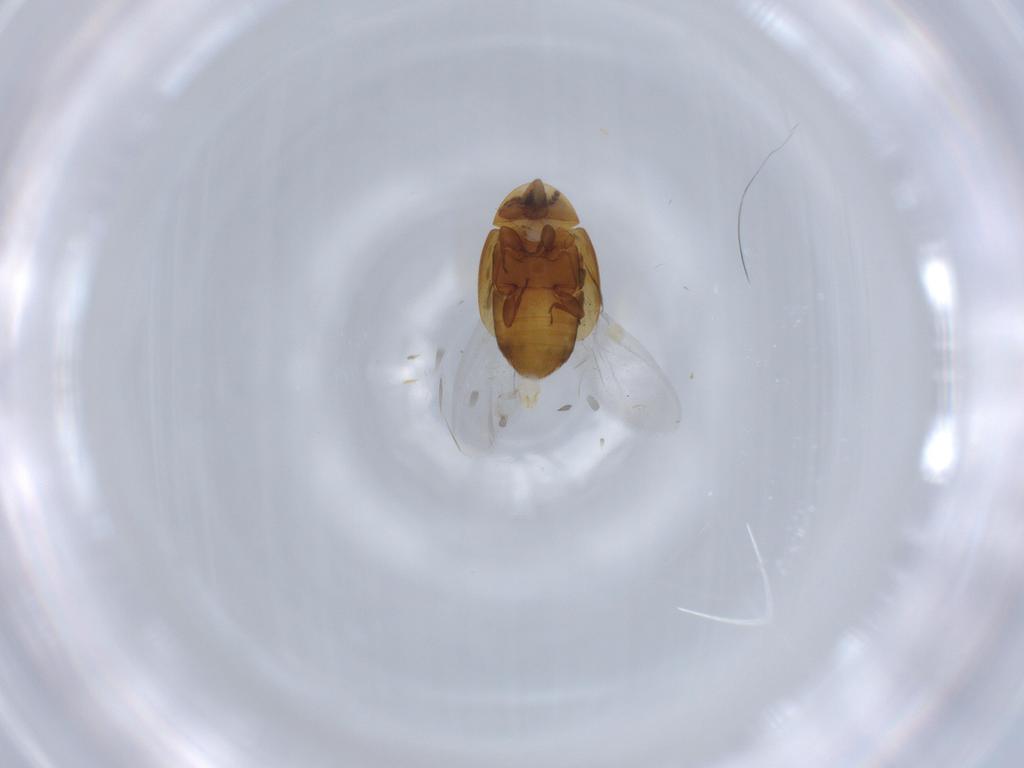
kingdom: Animalia
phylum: Arthropoda
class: Insecta
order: Coleoptera
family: Corylophidae
